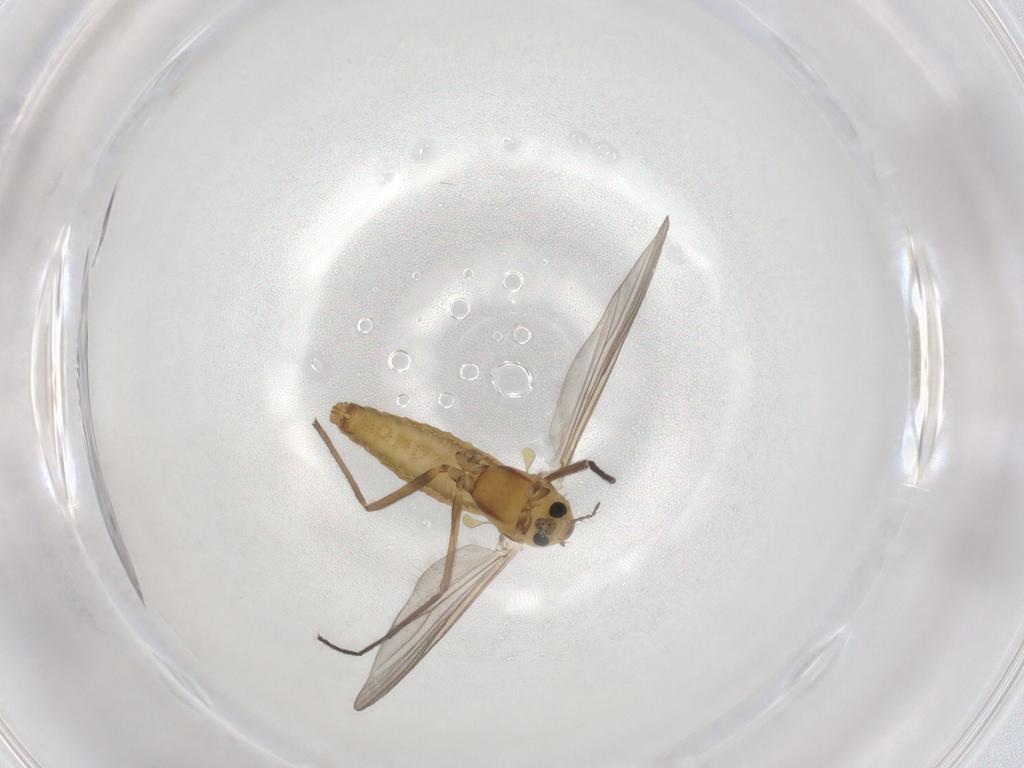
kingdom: Animalia
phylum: Arthropoda
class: Insecta
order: Diptera
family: Chironomidae
